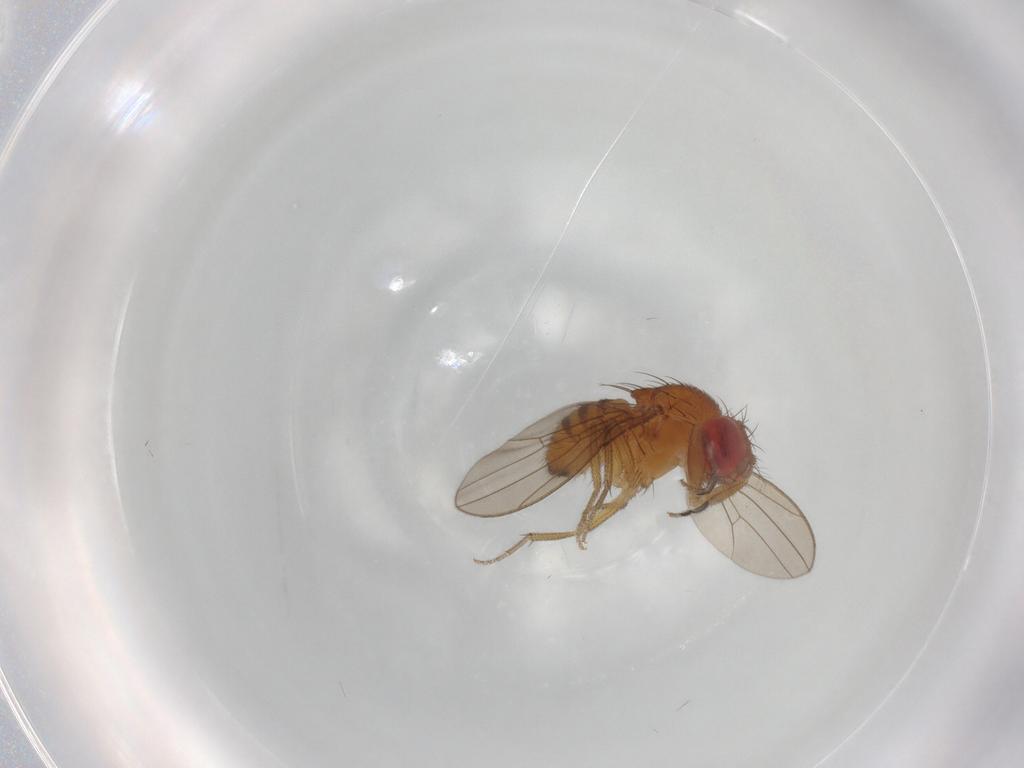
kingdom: Animalia
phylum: Arthropoda
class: Insecta
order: Diptera
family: Drosophilidae
